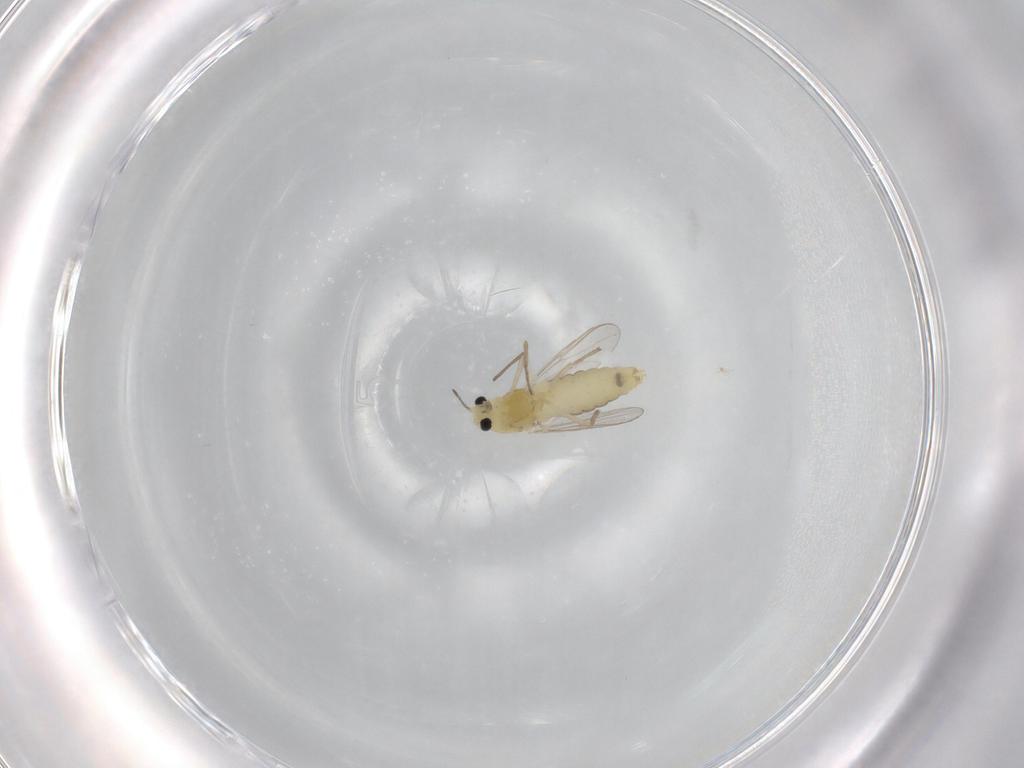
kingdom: Animalia
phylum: Arthropoda
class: Insecta
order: Diptera
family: Chironomidae
